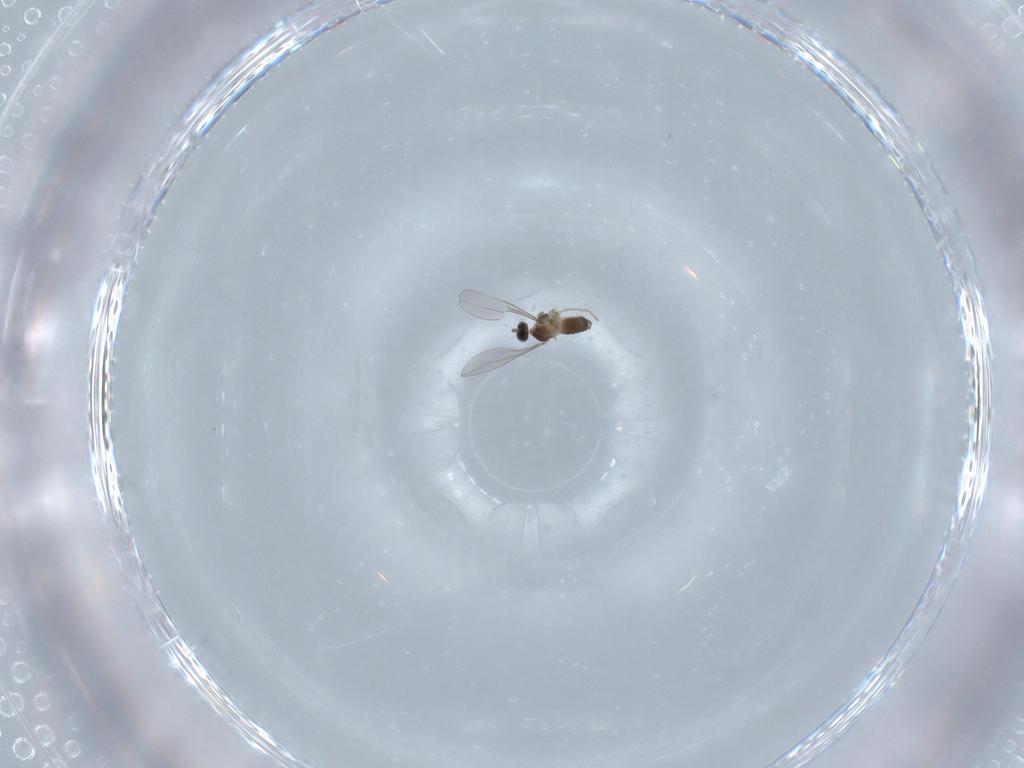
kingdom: Animalia
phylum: Arthropoda
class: Insecta
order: Diptera
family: Cecidomyiidae
